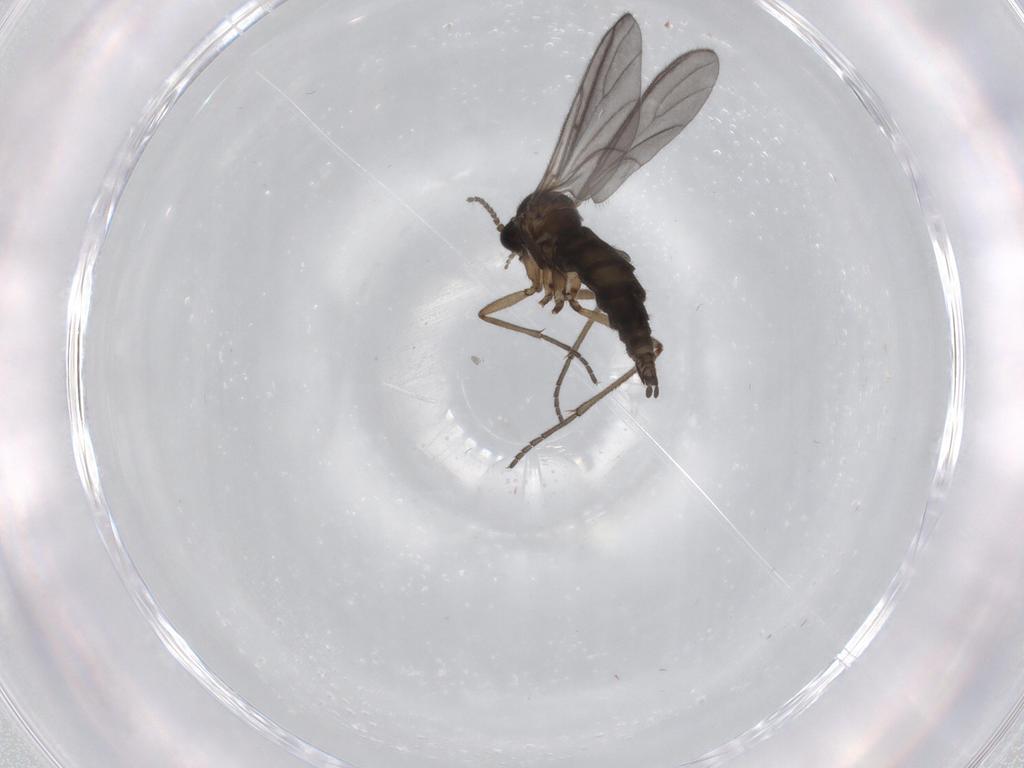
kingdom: Animalia
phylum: Arthropoda
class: Insecta
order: Diptera
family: Sciaridae
